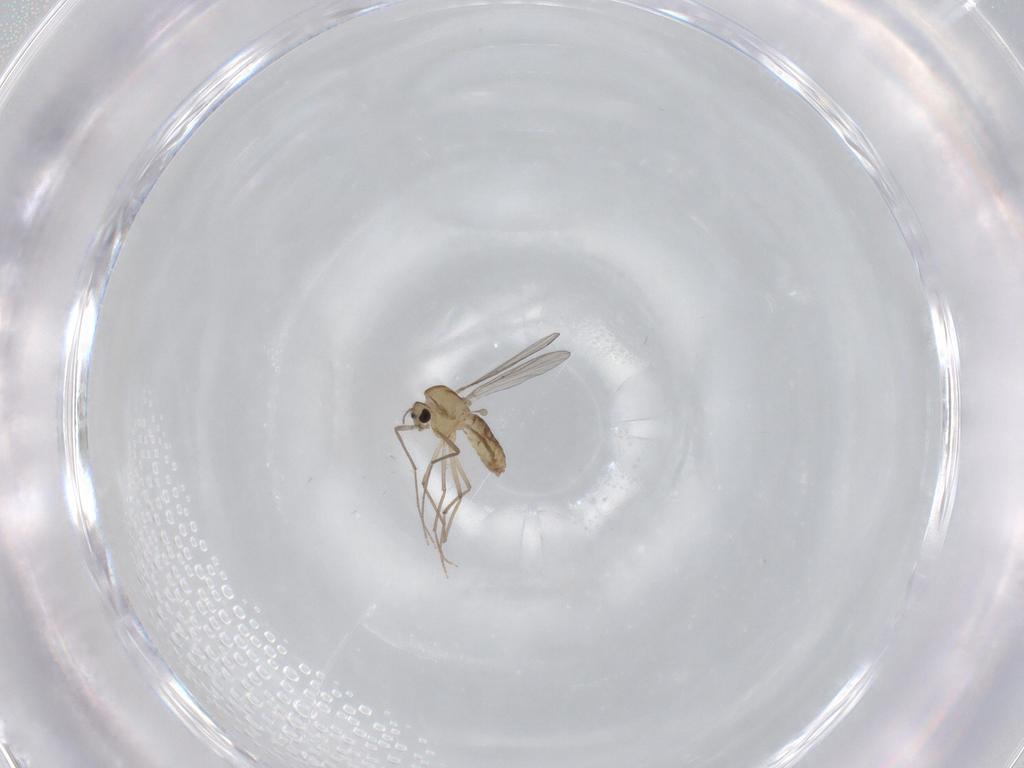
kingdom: Animalia
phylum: Arthropoda
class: Insecta
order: Diptera
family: Chironomidae
